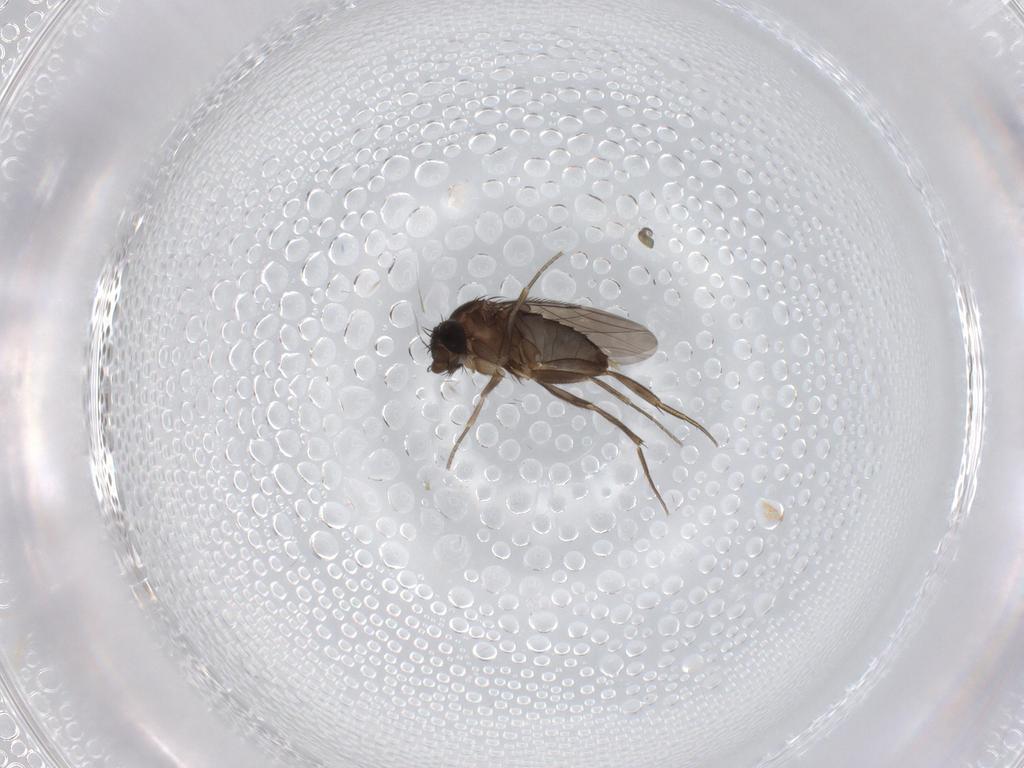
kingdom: Animalia
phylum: Arthropoda
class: Insecta
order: Diptera
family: Phoridae
